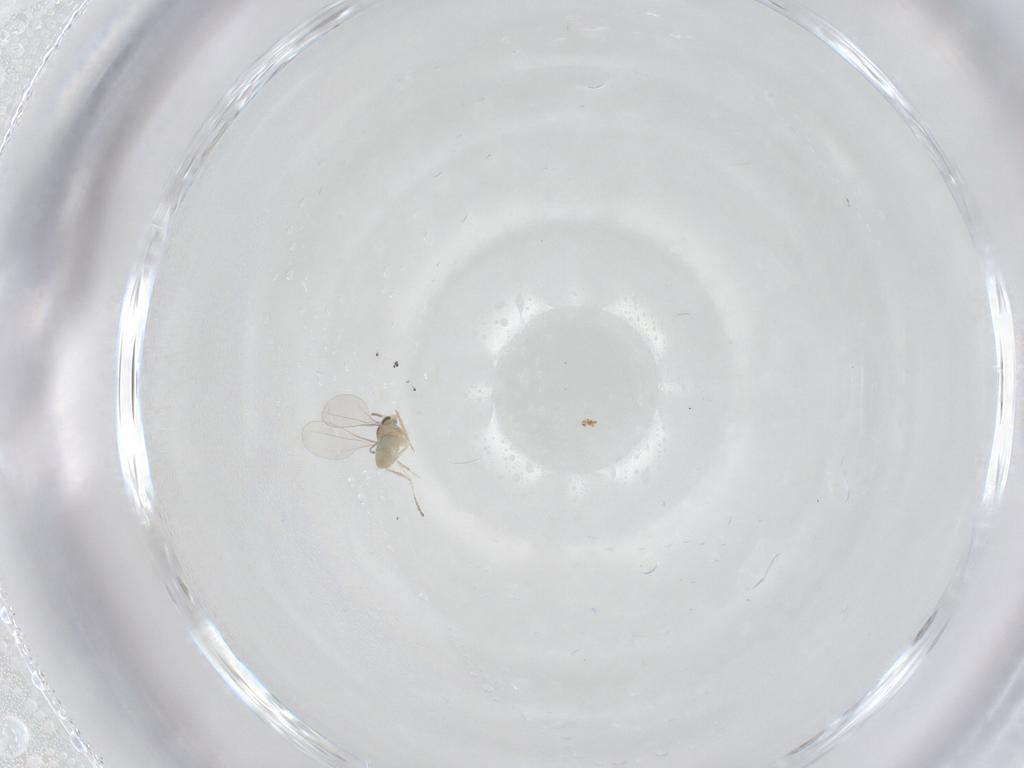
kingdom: Animalia
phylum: Arthropoda
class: Insecta
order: Diptera
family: Cecidomyiidae
